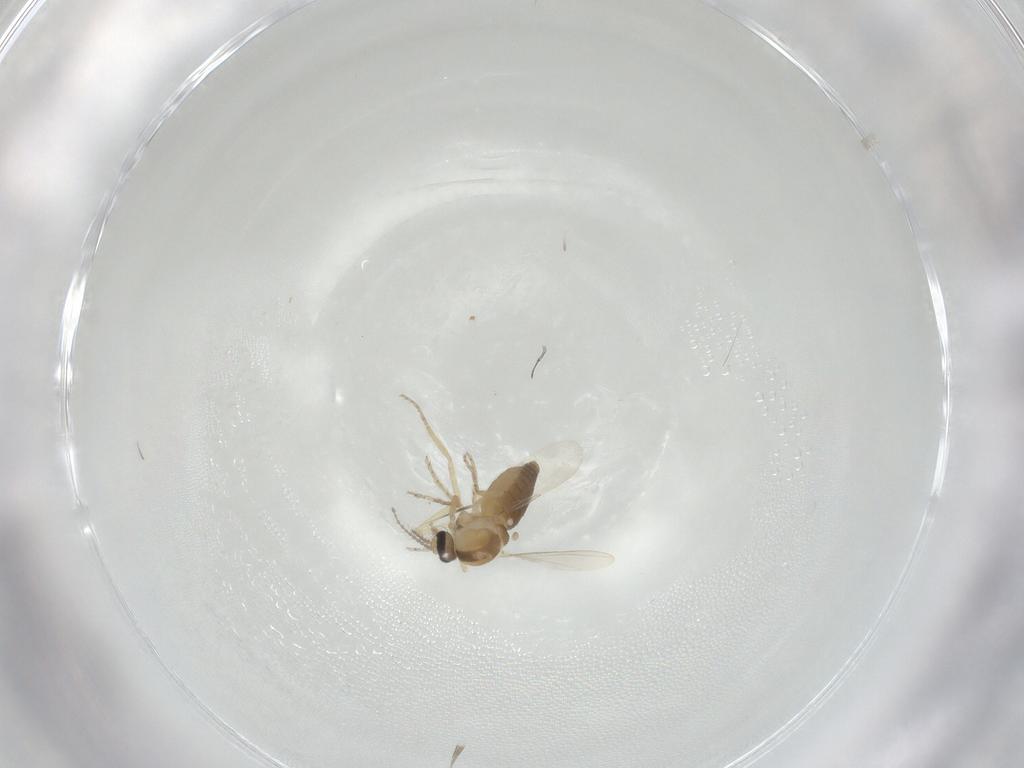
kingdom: Animalia
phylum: Arthropoda
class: Insecta
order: Diptera
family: Ceratopogonidae
